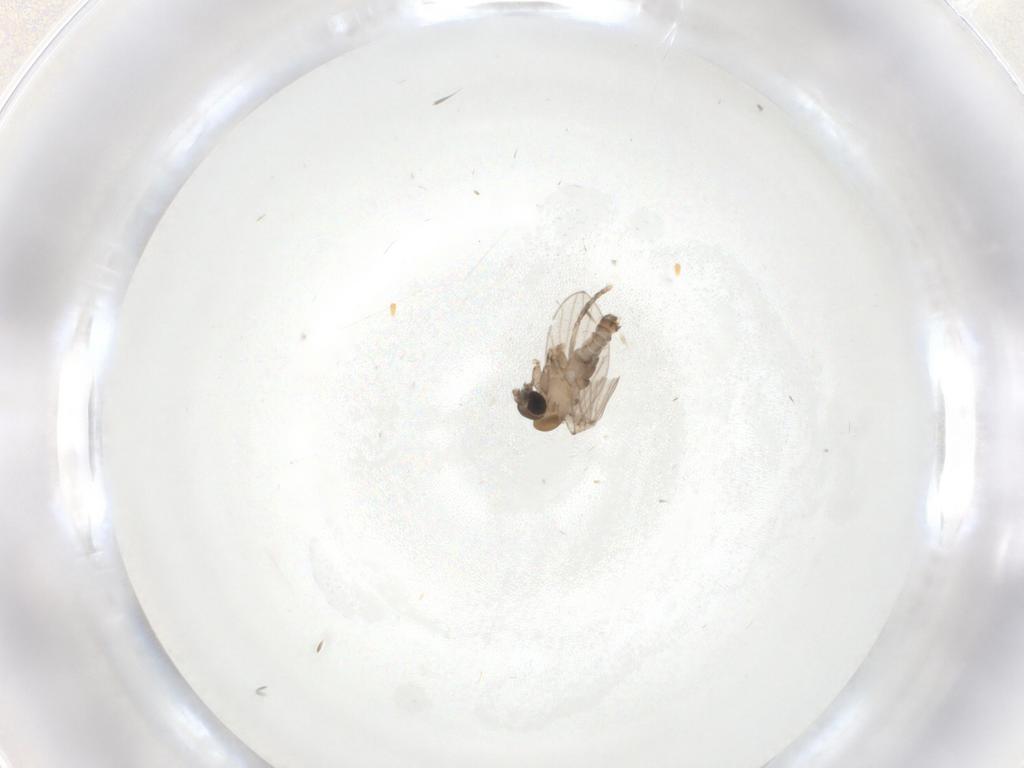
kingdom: Animalia
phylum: Arthropoda
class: Insecta
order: Diptera
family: Psychodidae
